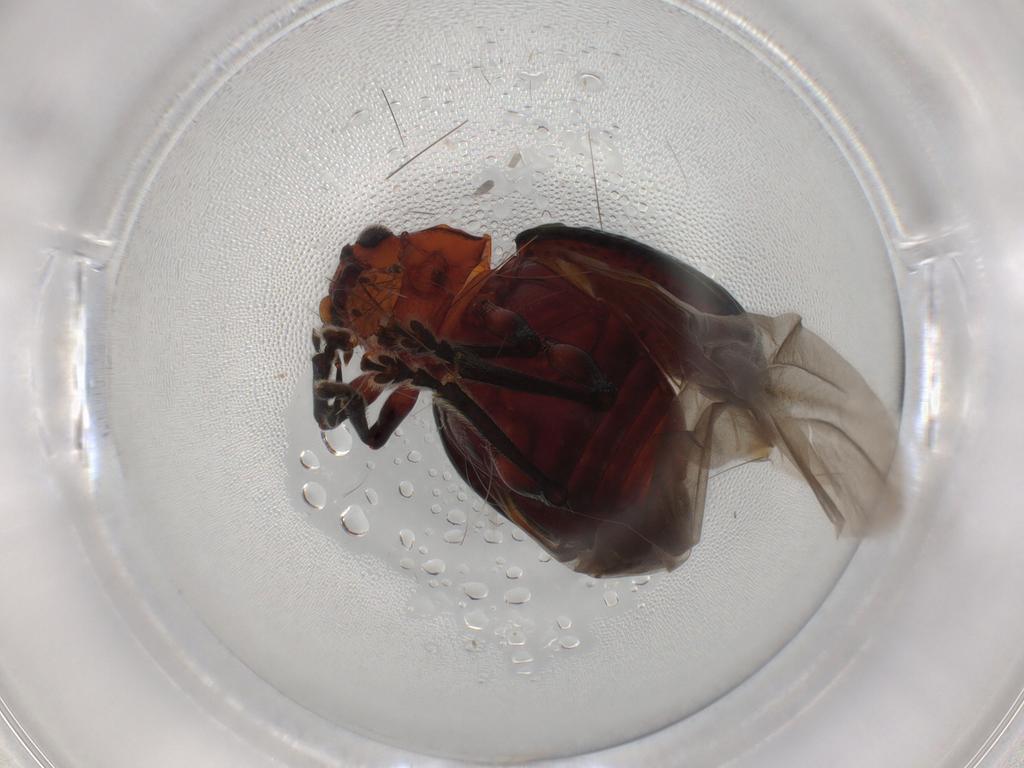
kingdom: Animalia
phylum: Arthropoda
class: Insecta
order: Coleoptera
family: Chrysomelidae
